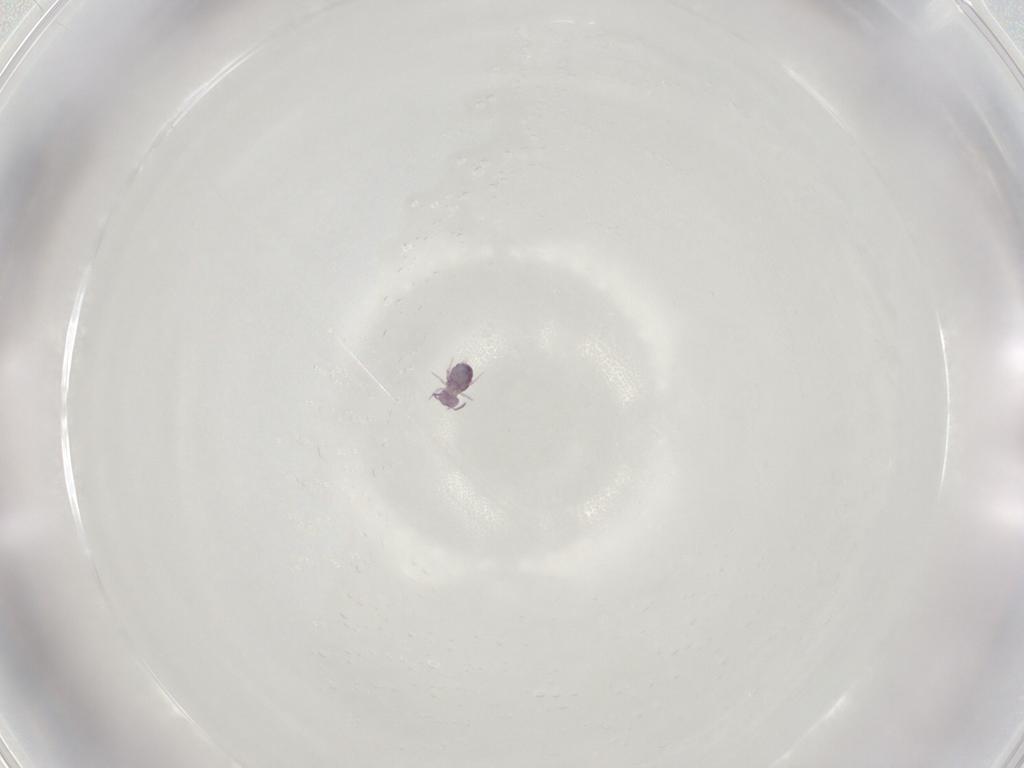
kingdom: Animalia
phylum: Arthropoda
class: Collembola
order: Symphypleona
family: Sminthurididae
